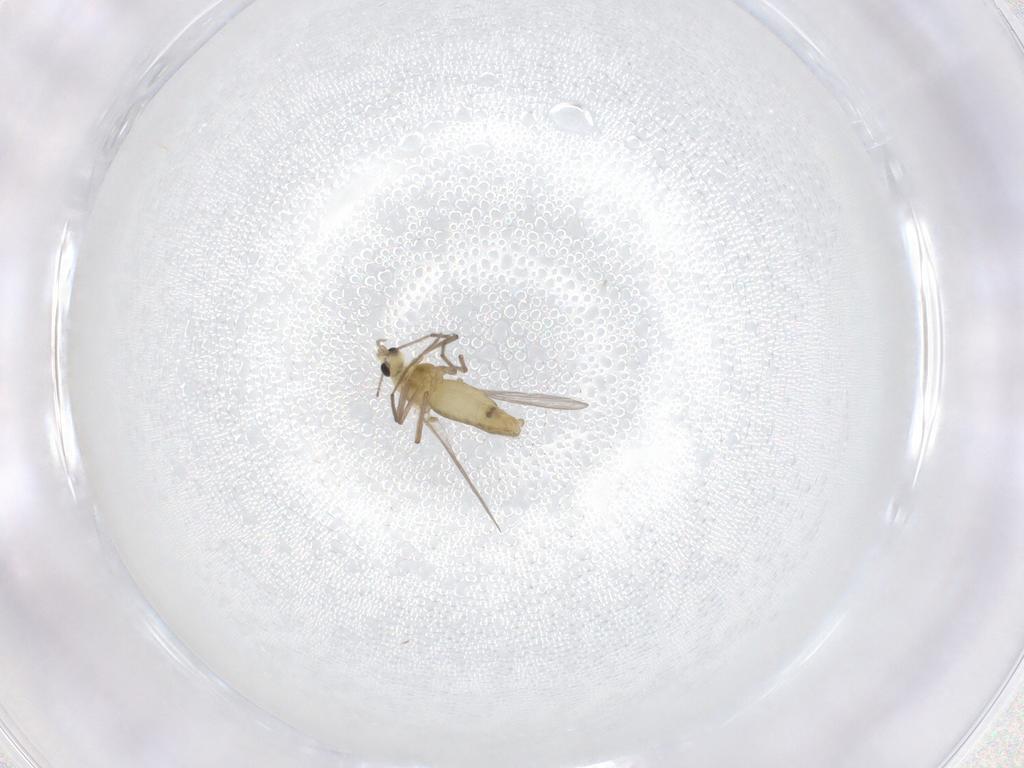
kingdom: Animalia
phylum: Arthropoda
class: Insecta
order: Diptera
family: Chironomidae
